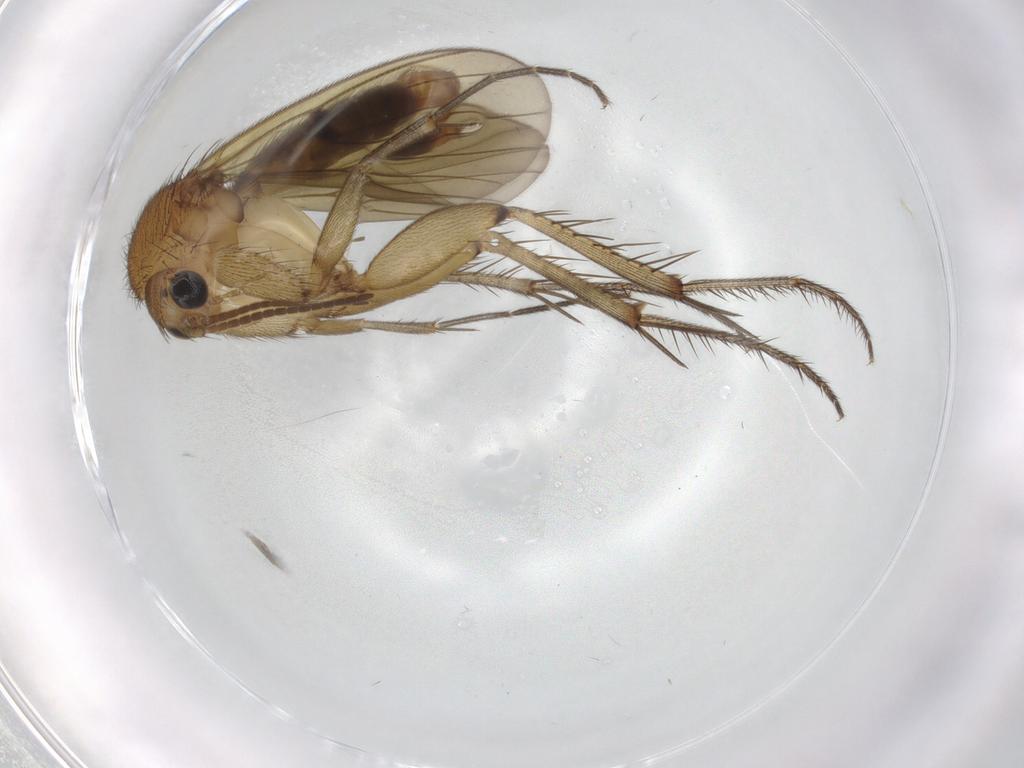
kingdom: Animalia
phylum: Arthropoda
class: Insecta
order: Diptera
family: Mycetophilidae
